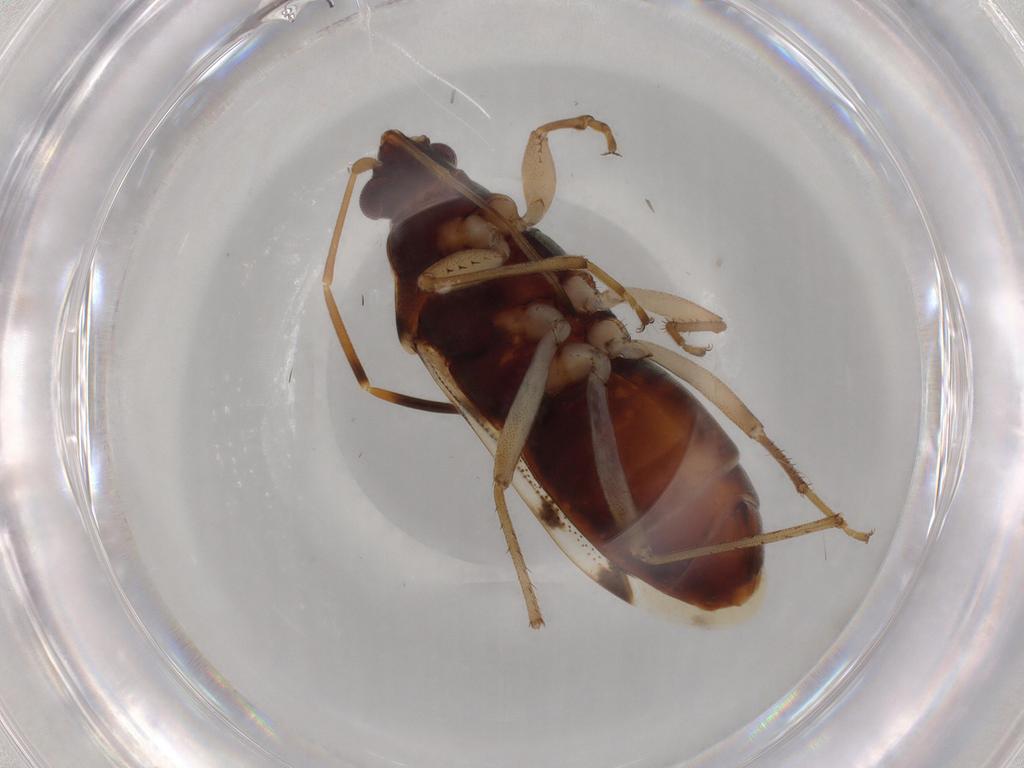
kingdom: Animalia
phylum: Arthropoda
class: Insecta
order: Hemiptera
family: Rhyparochromidae
